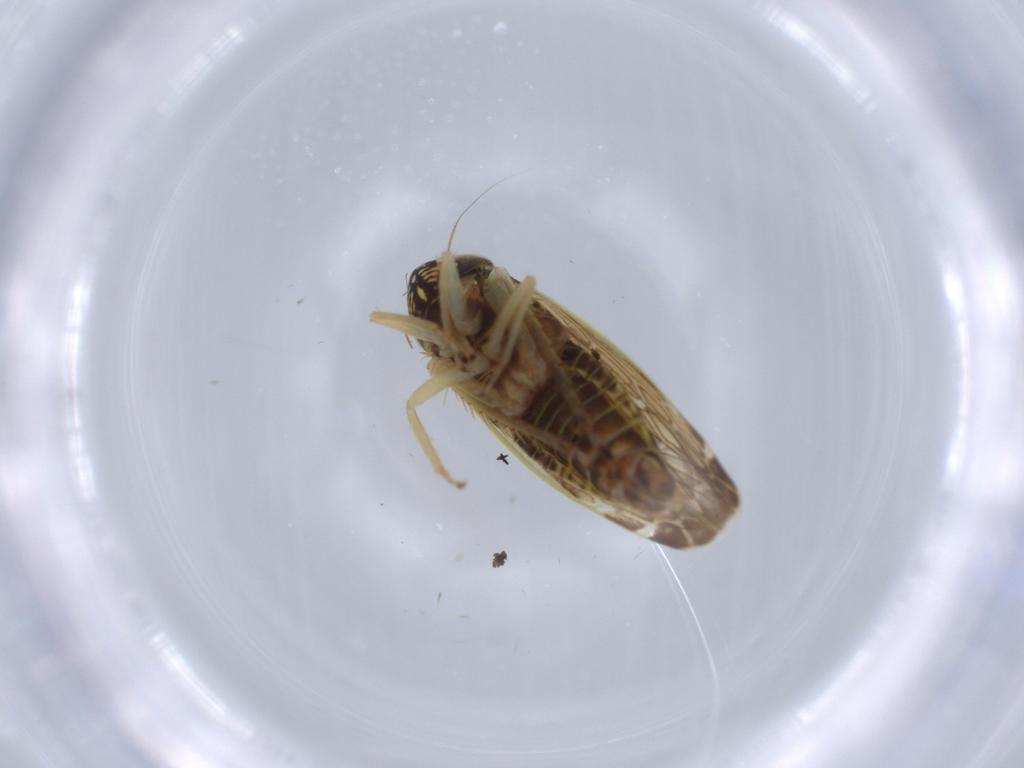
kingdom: Animalia
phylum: Arthropoda
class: Insecta
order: Hemiptera
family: Cicadellidae
